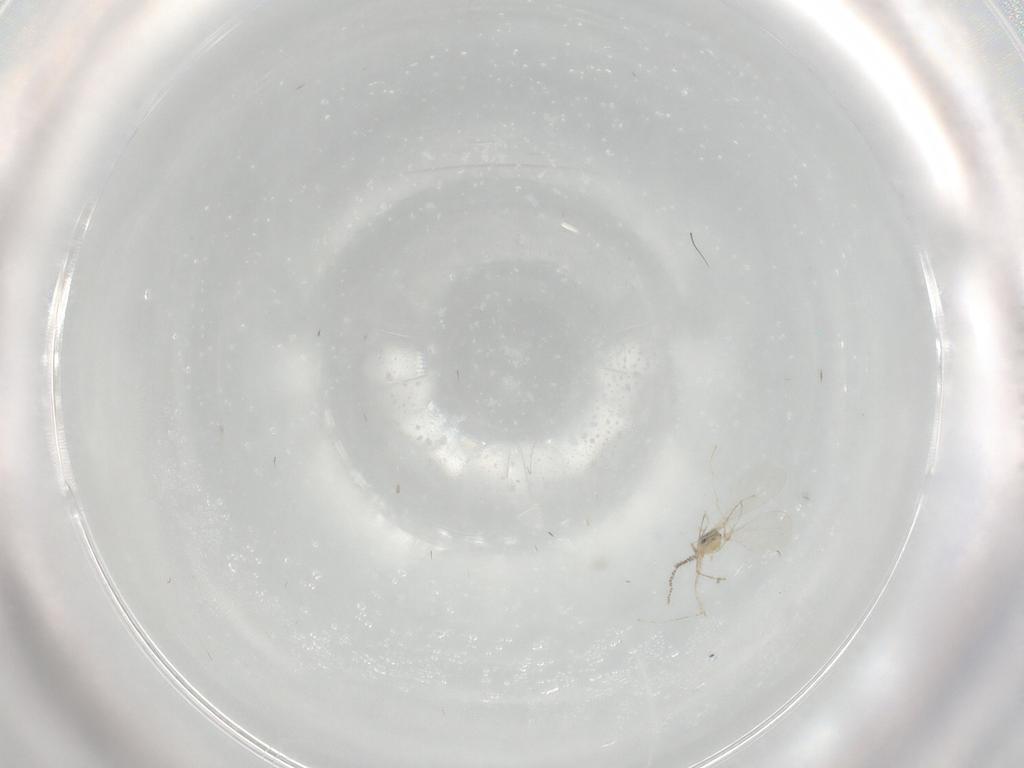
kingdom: Animalia
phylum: Arthropoda
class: Insecta
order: Diptera
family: Cecidomyiidae
